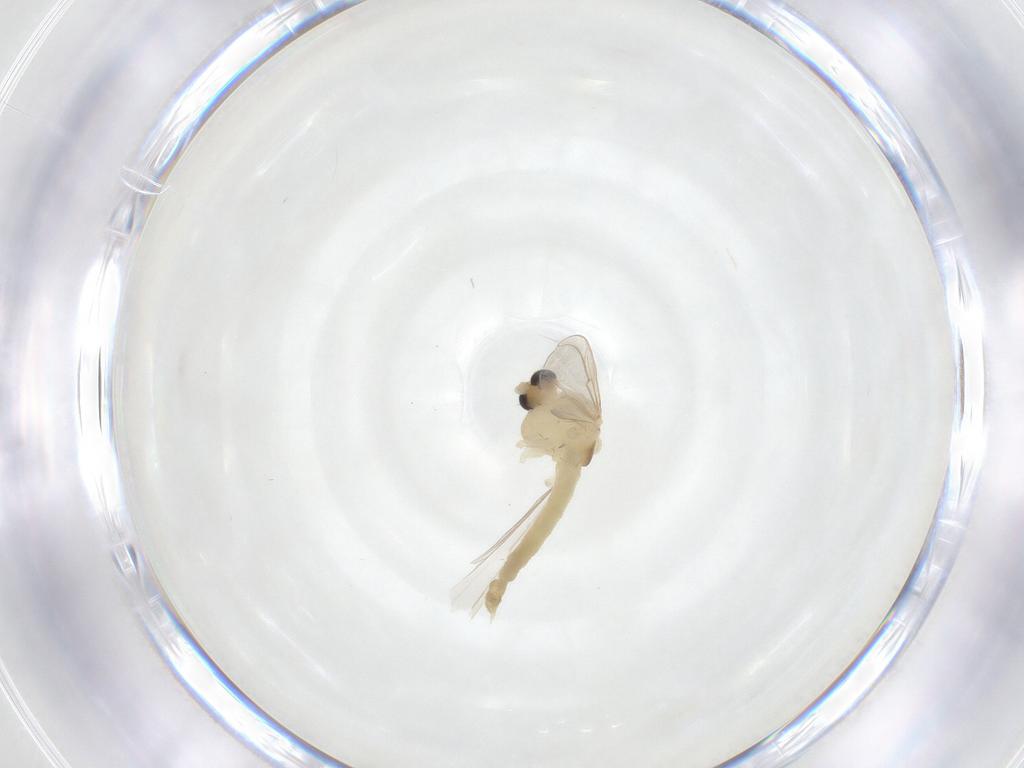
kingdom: Animalia
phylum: Arthropoda
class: Insecta
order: Diptera
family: Chironomidae
